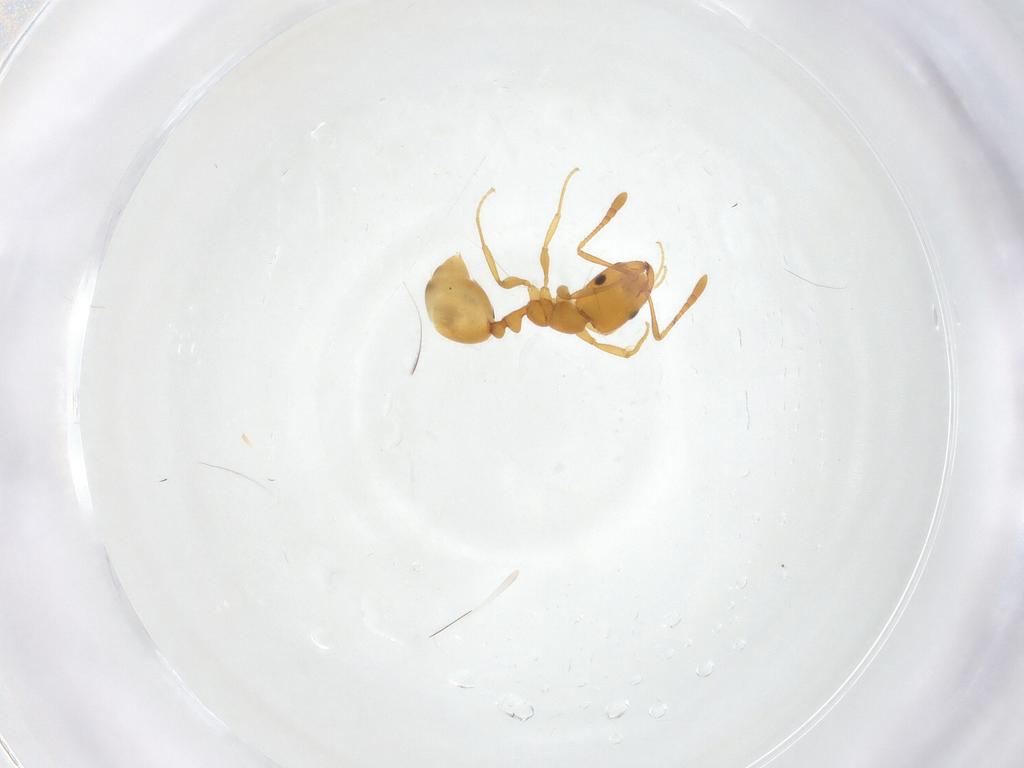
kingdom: Animalia
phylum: Arthropoda
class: Insecta
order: Hymenoptera
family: Formicidae
